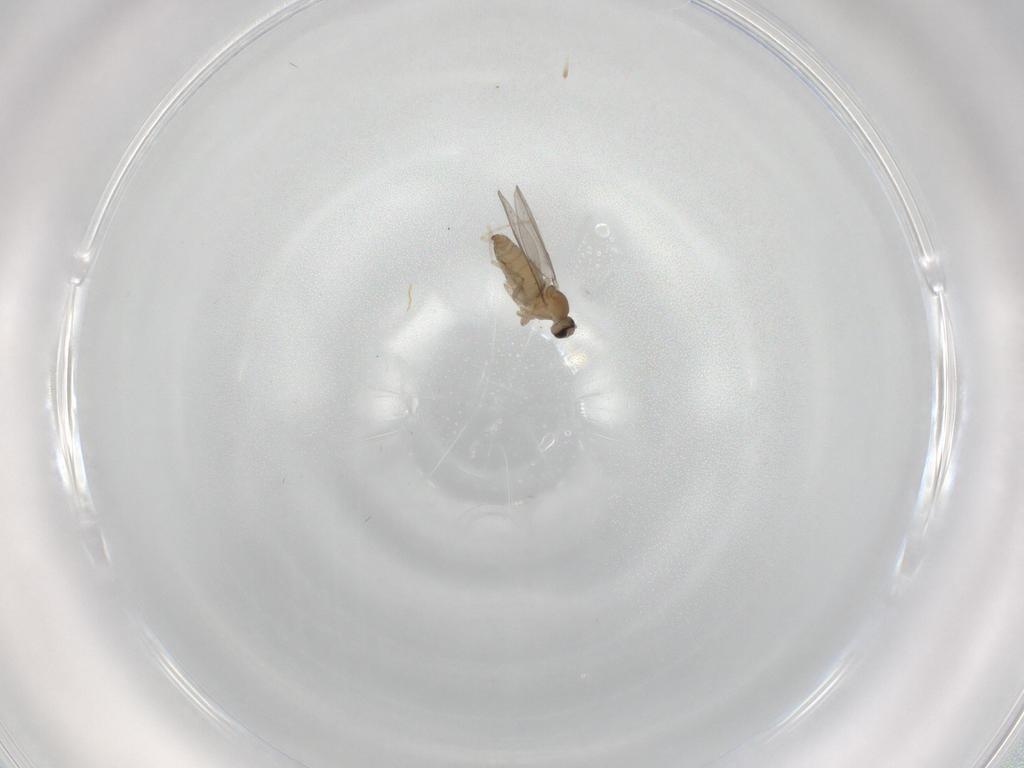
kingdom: Animalia
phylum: Arthropoda
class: Insecta
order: Diptera
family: Cecidomyiidae
